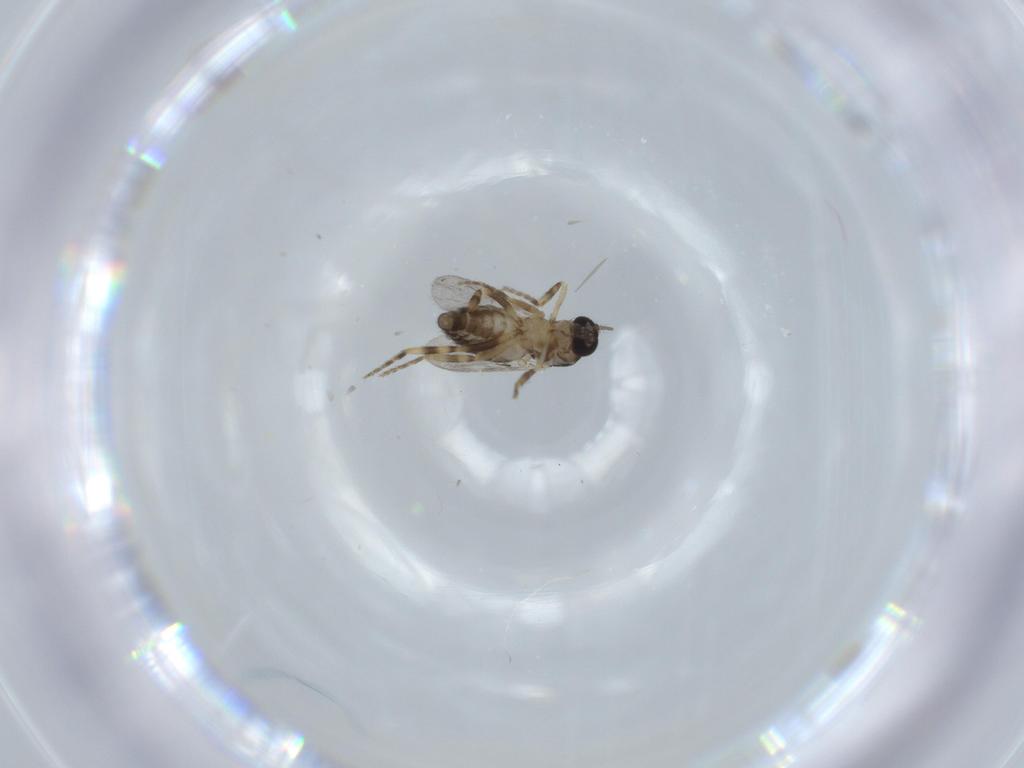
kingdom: Animalia
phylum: Arthropoda
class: Insecta
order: Diptera
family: Ceratopogonidae
